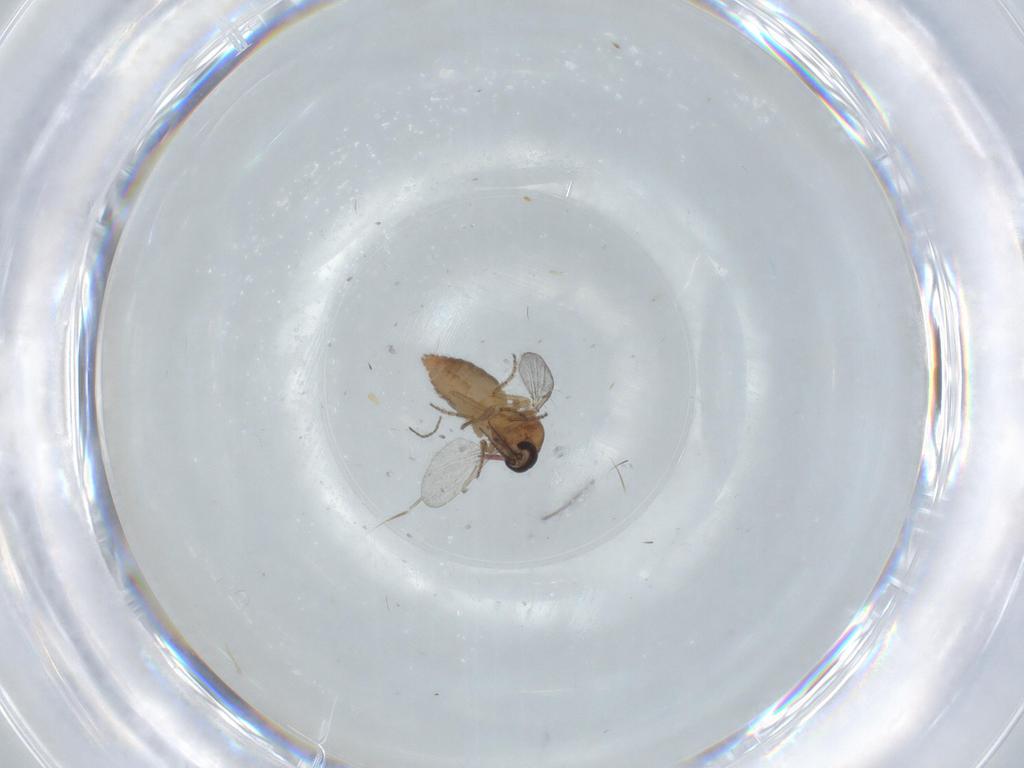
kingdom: Animalia
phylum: Arthropoda
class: Insecta
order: Diptera
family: Ceratopogonidae
